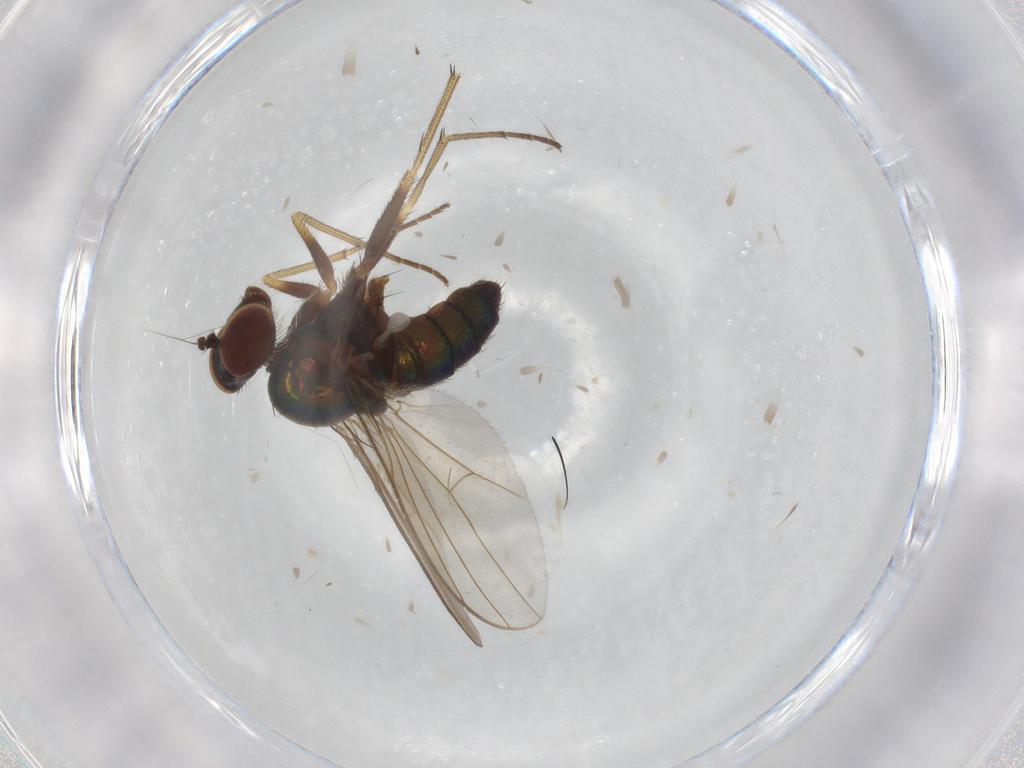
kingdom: Animalia
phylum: Arthropoda
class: Insecta
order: Diptera
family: Dolichopodidae
